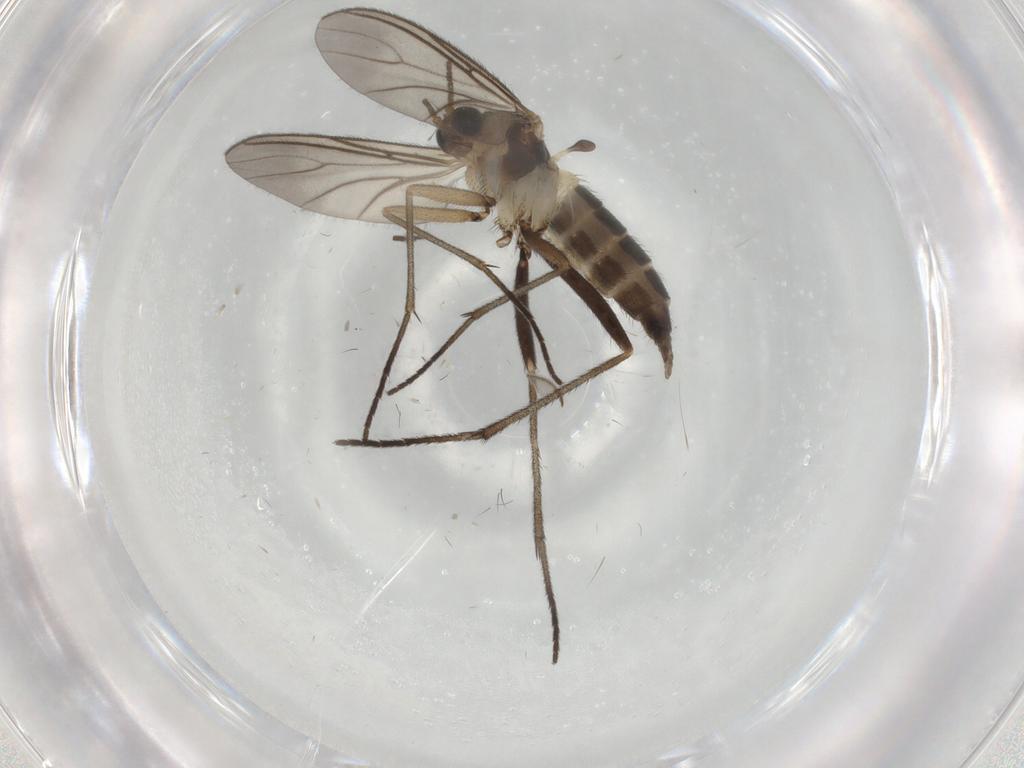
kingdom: Animalia
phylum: Arthropoda
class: Insecta
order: Diptera
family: Sciaridae
